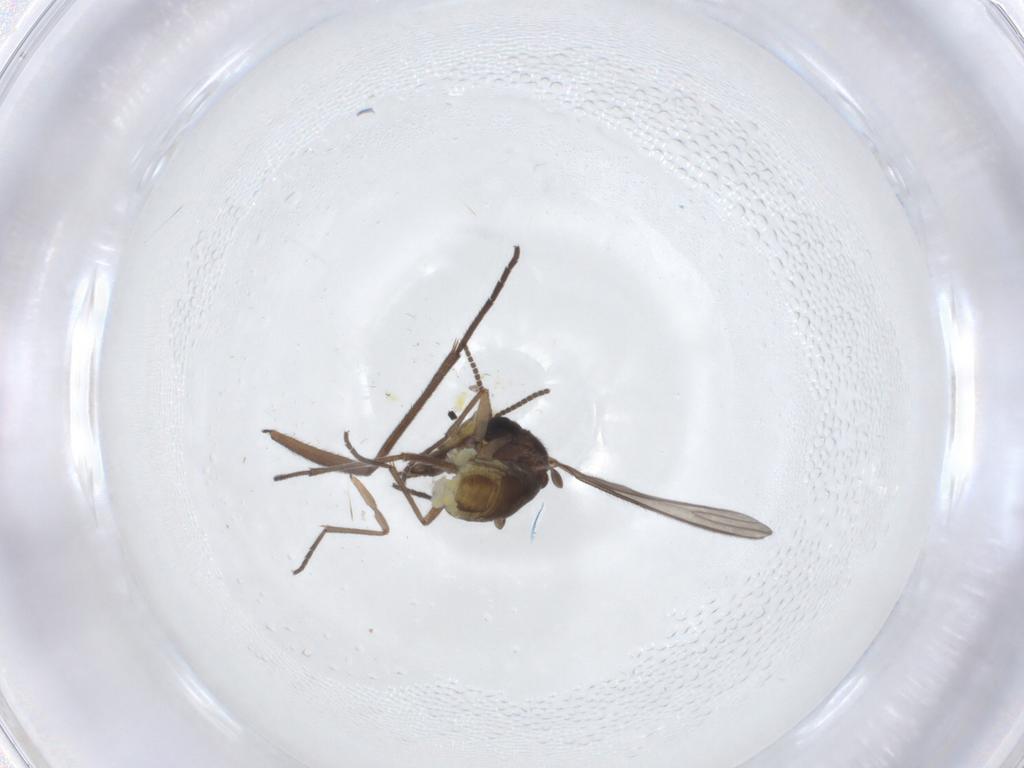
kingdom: Animalia
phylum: Arthropoda
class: Insecta
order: Diptera
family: Sciaridae
